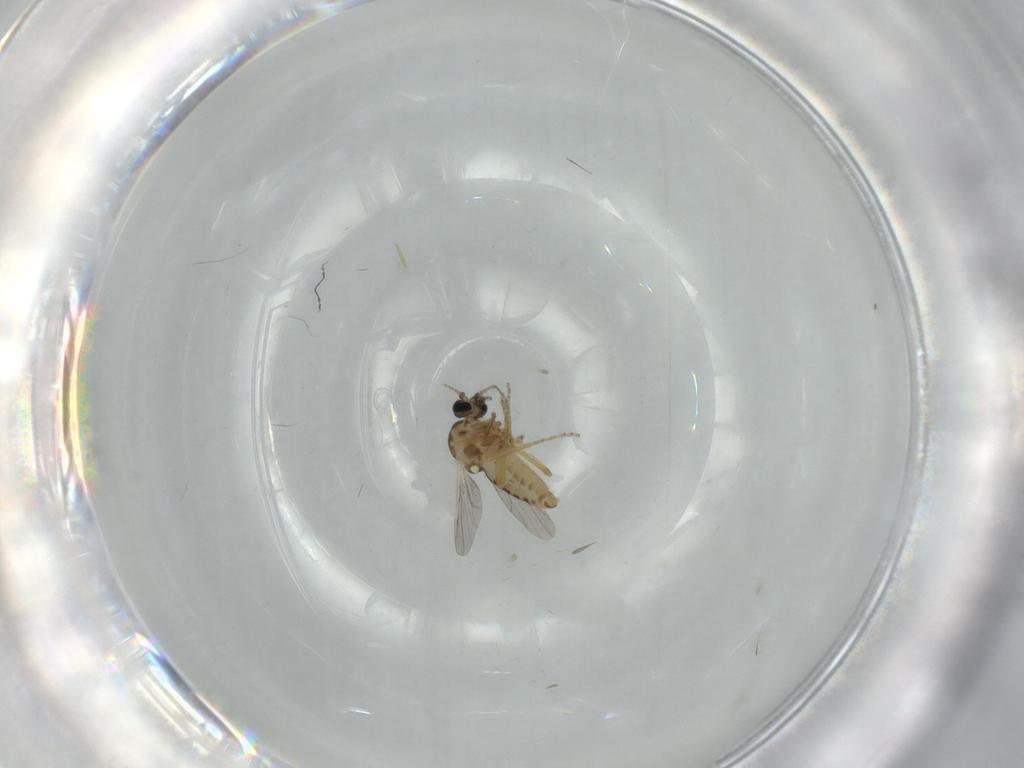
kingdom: Animalia
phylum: Arthropoda
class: Insecta
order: Diptera
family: Ceratopogonidae
